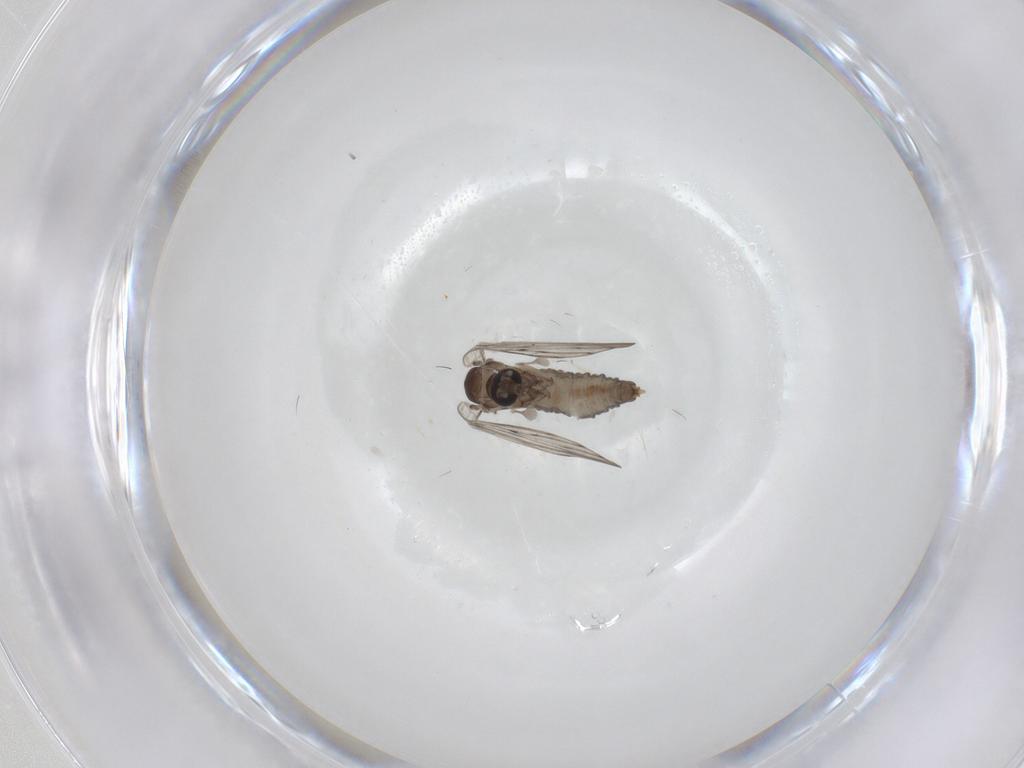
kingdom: Animalia
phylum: Arthropoda
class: Insecta
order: Diptera
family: Psychodidae
